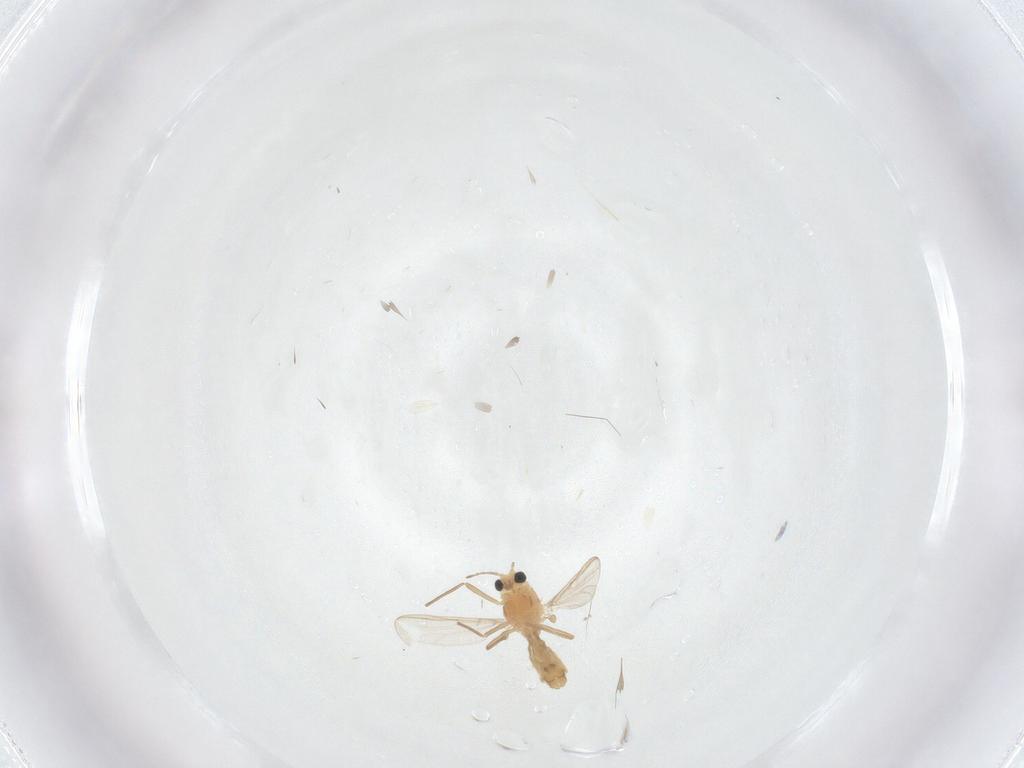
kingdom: Animalia
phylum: Arthropoda
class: Insecta
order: Diptera
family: Chironomidae
